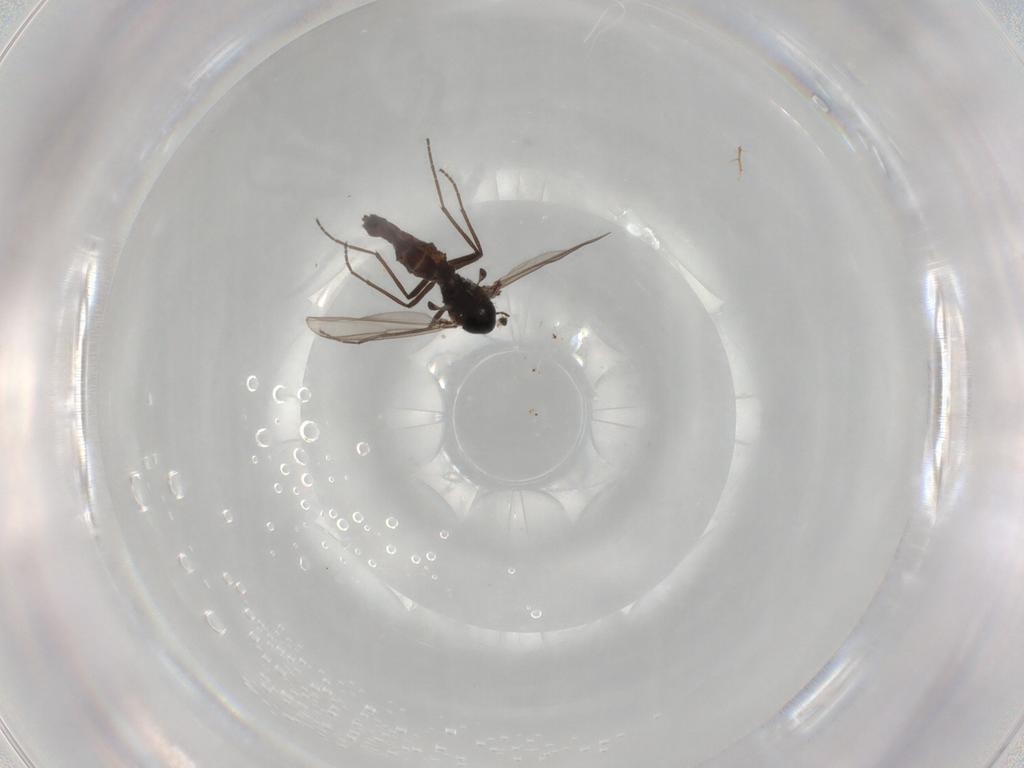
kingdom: Animalia
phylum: Arthropoda
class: Insecta
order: Diptera
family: Chironomidae
